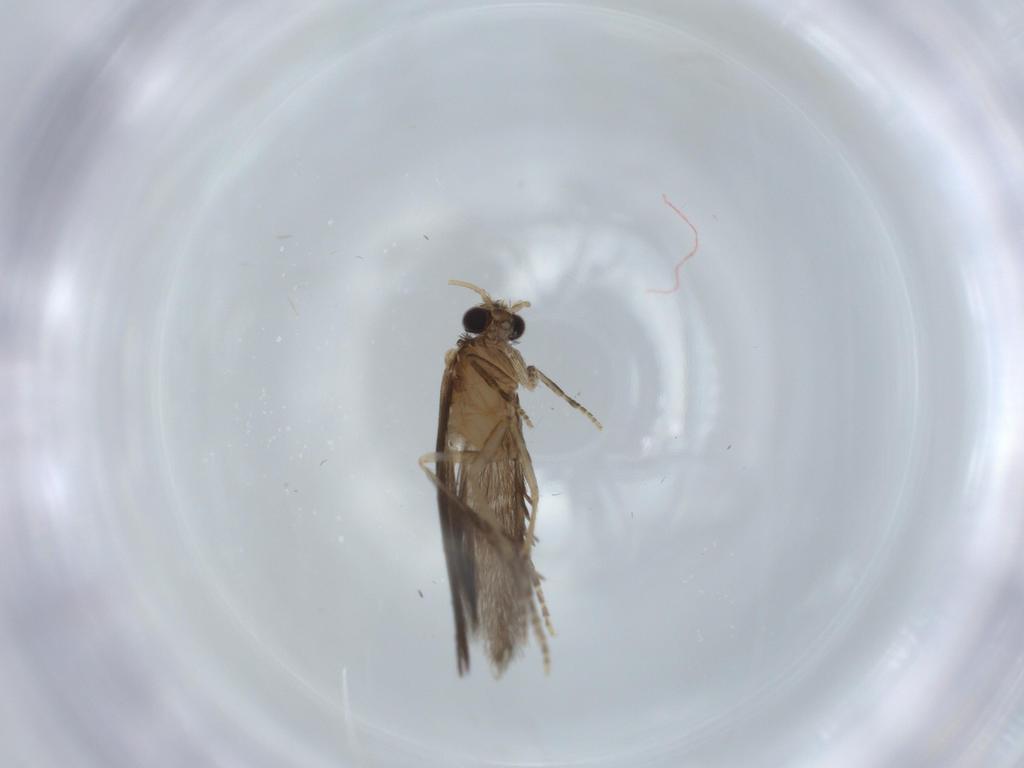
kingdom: Animalia
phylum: Arthropoda
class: Insecta
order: Trichoptera
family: Hydroptilidae
